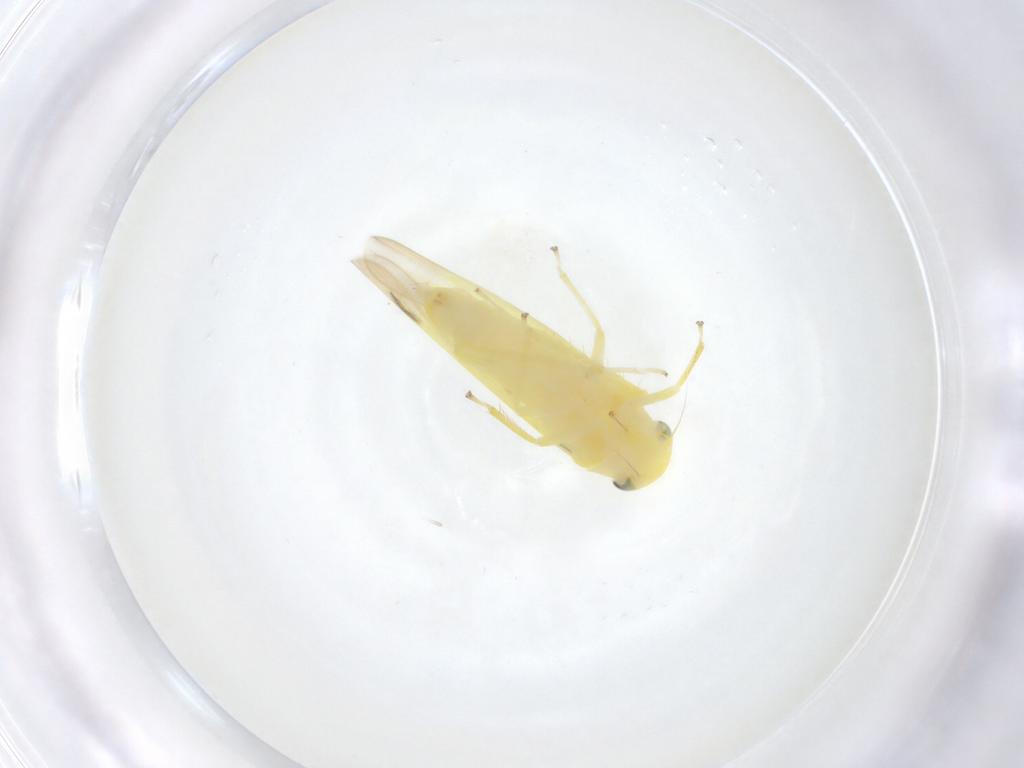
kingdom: Animalia
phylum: Arthropoda
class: Insecta
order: Hemiptera
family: Cicadellidae
